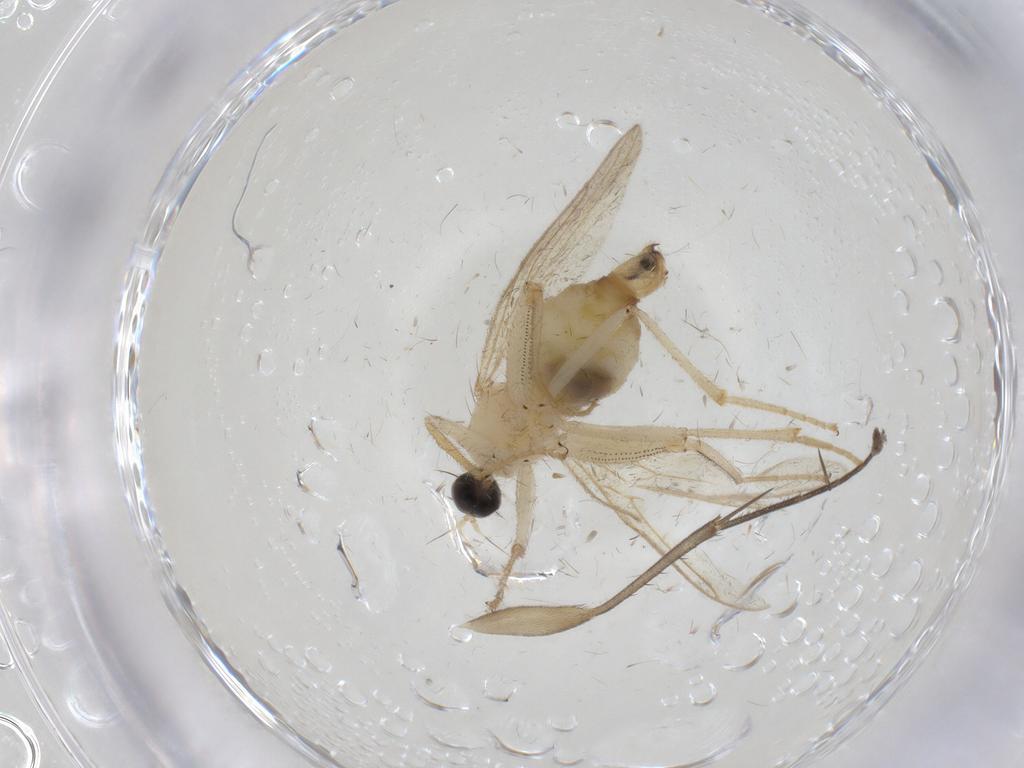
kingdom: Animalia
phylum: Arthropoda
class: Insecta
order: Diptera
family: Hybotidae
